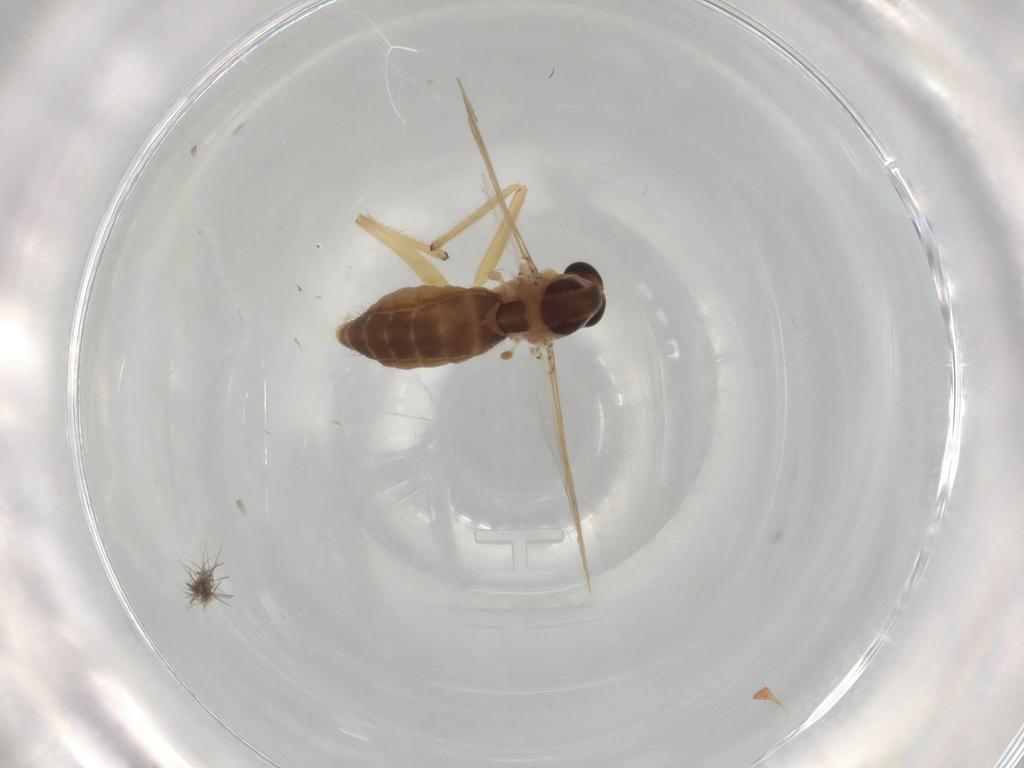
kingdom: Animalia
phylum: Arthropoda
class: Insecta
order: Diptera
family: Chironomidae
